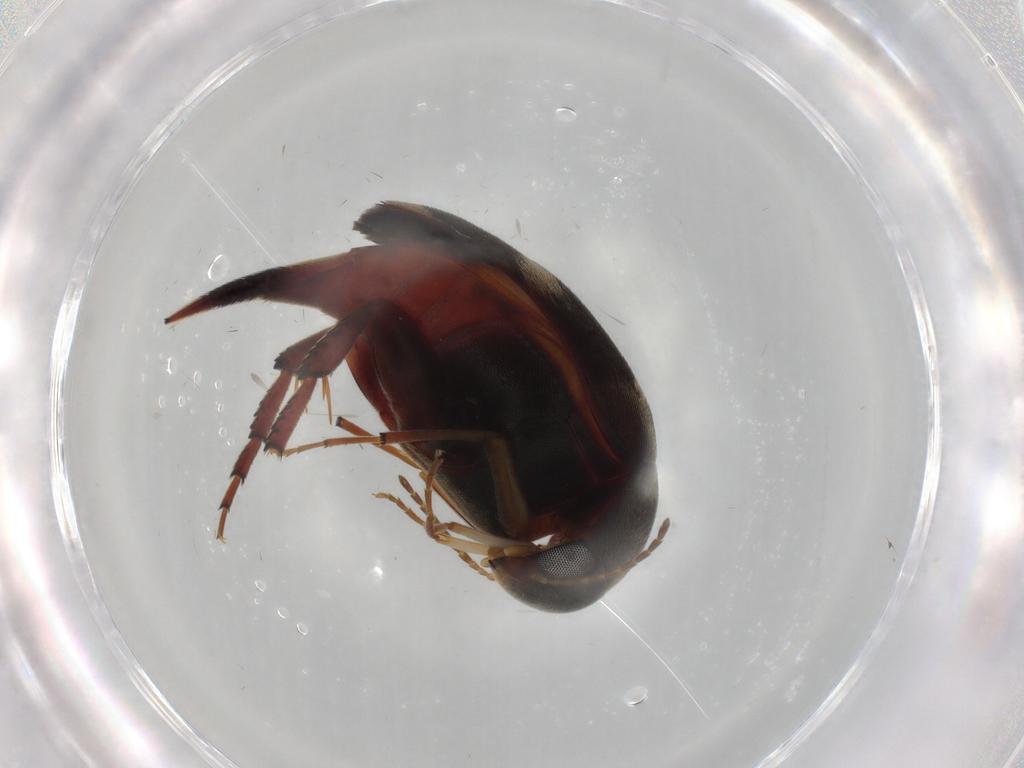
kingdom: Animalia
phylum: Arthropoda
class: Insecta
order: Coleoptera
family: Mordellidae
